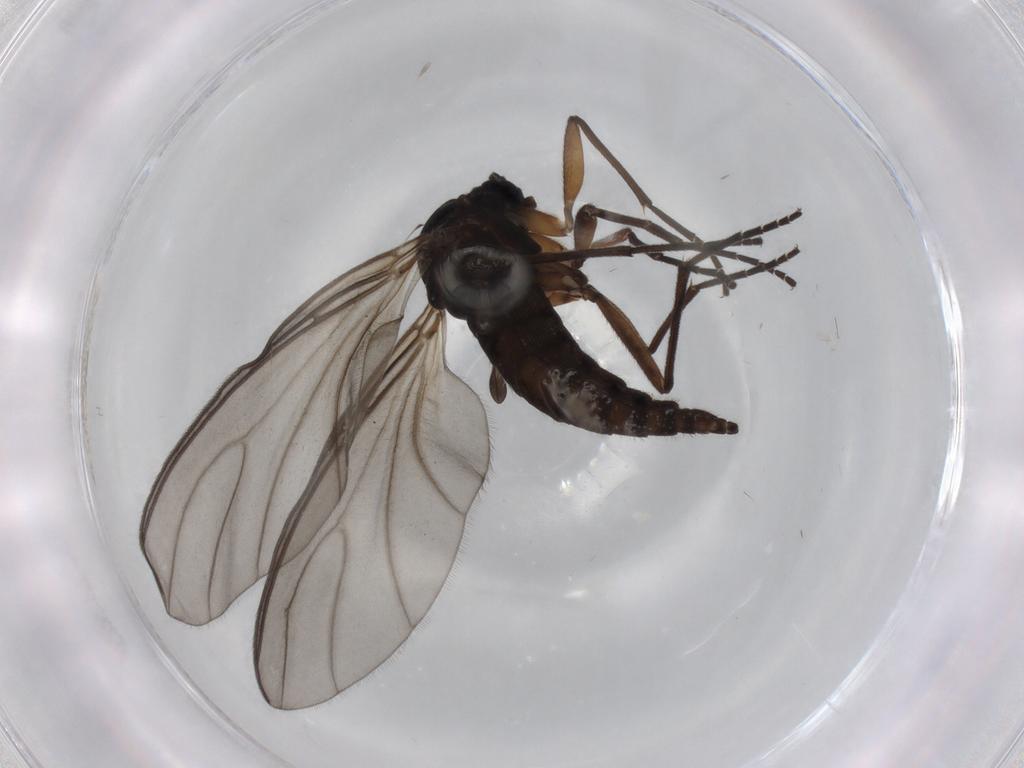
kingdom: Animalia
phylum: Arthropoda
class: Insecta
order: Diptera
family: Sciaridae
